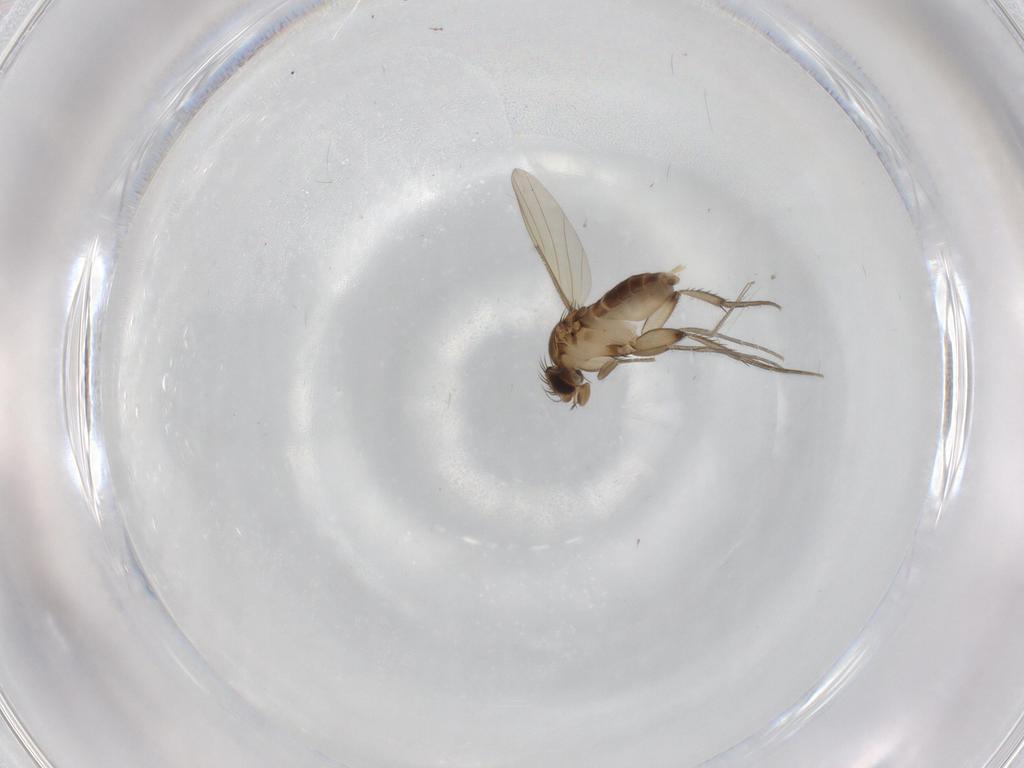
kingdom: Animalia
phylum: Arthropoda
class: Insecta
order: Diptera
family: Phoridae
